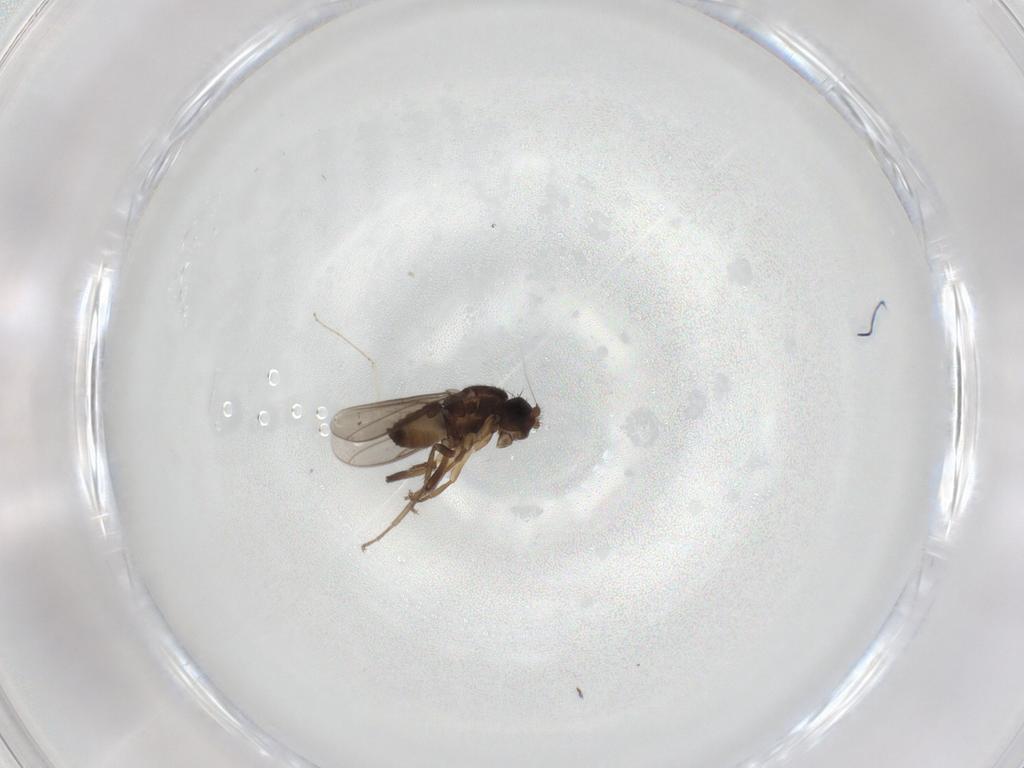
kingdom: Animalia
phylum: Arthropoda
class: Insecta
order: Diptera
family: Sphaeroceridae
